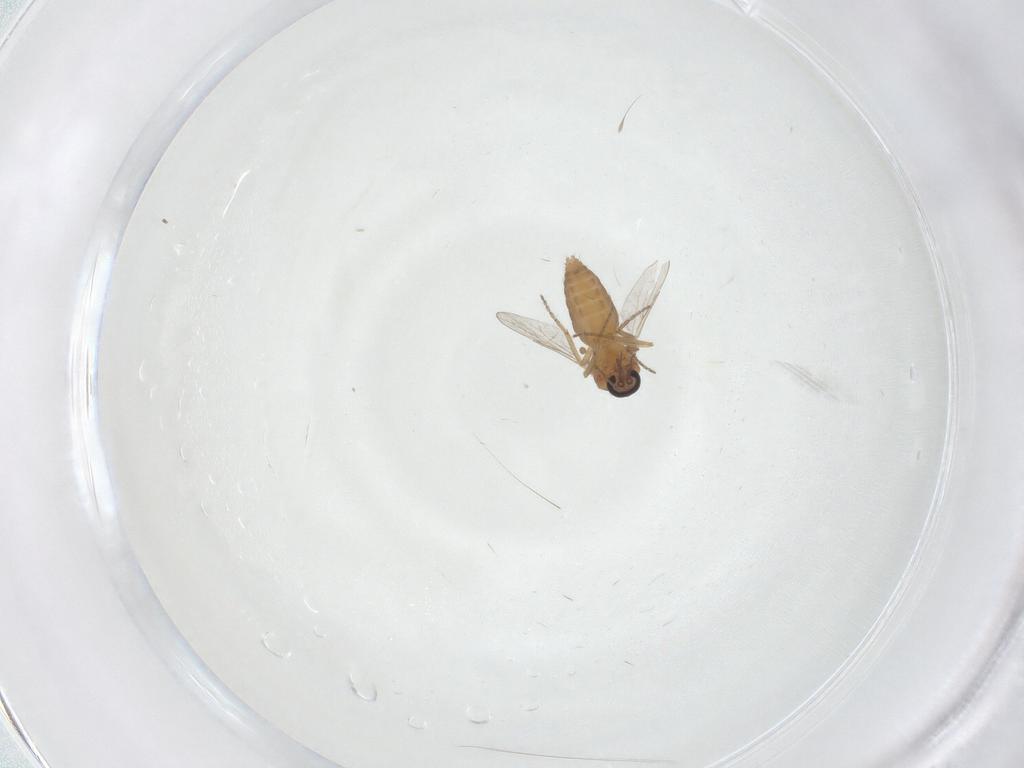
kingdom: Animalia
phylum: Arthropoda
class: Insecta
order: Diptera
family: Ceratopogonidae
